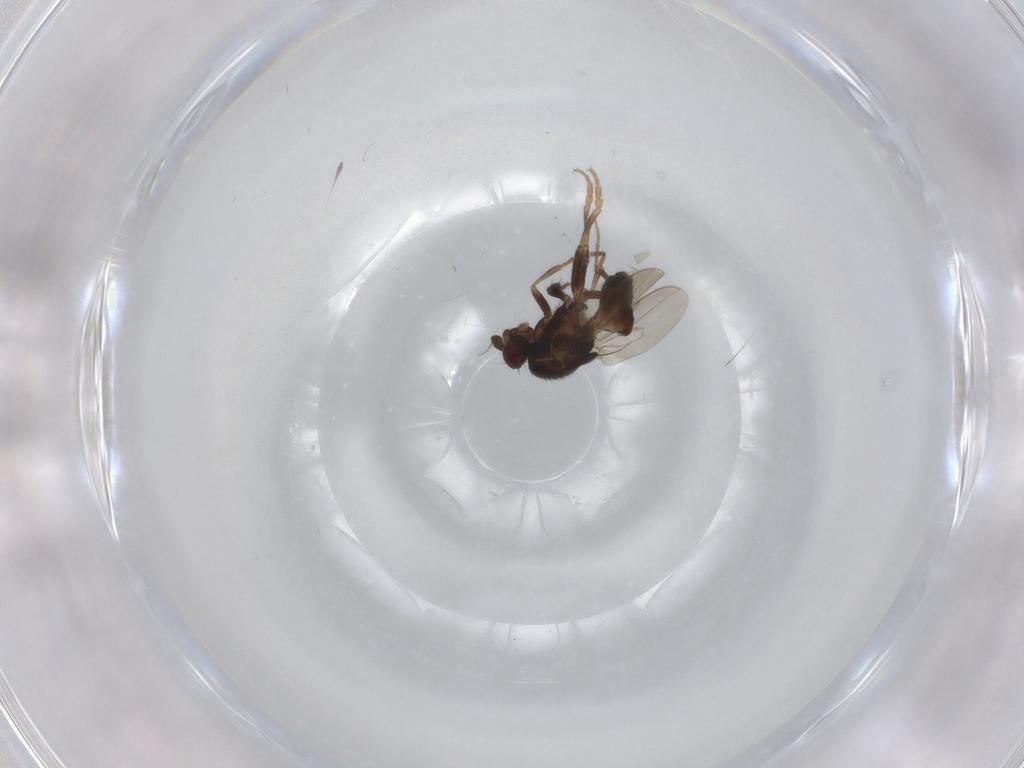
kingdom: Animalia
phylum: Arthropoda
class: Insecta
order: Diptera
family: Sphaeroceridae
